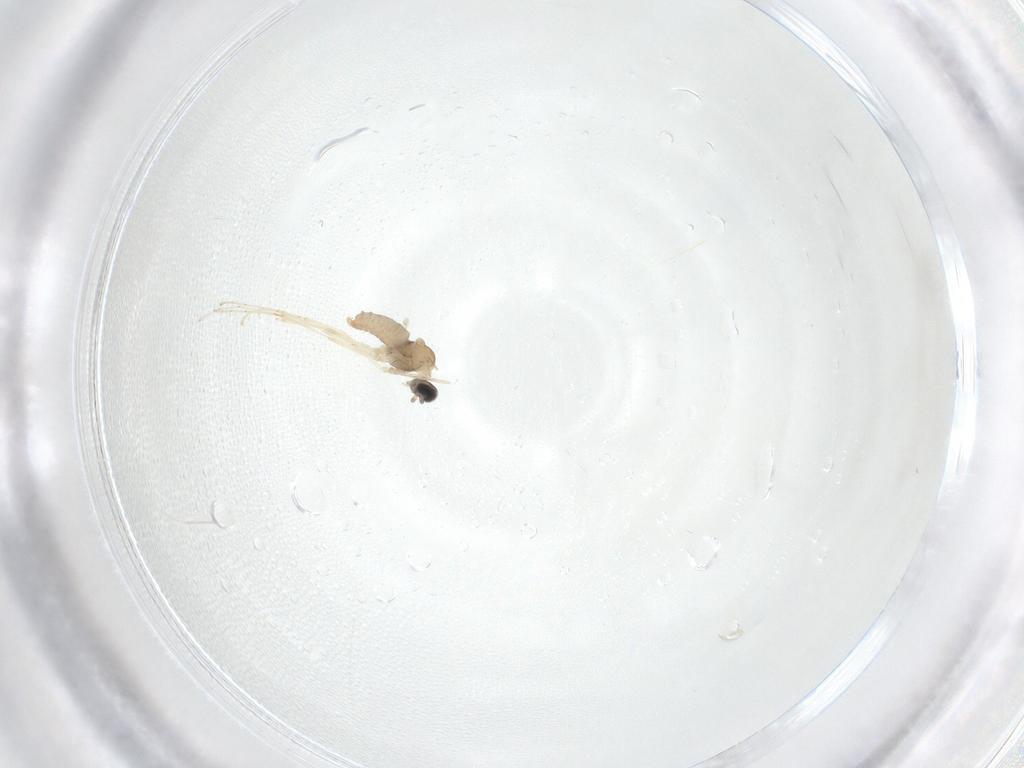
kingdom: Animalia
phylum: Arthropoda
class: Insecta
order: Diptera
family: Cecidomyiidae
